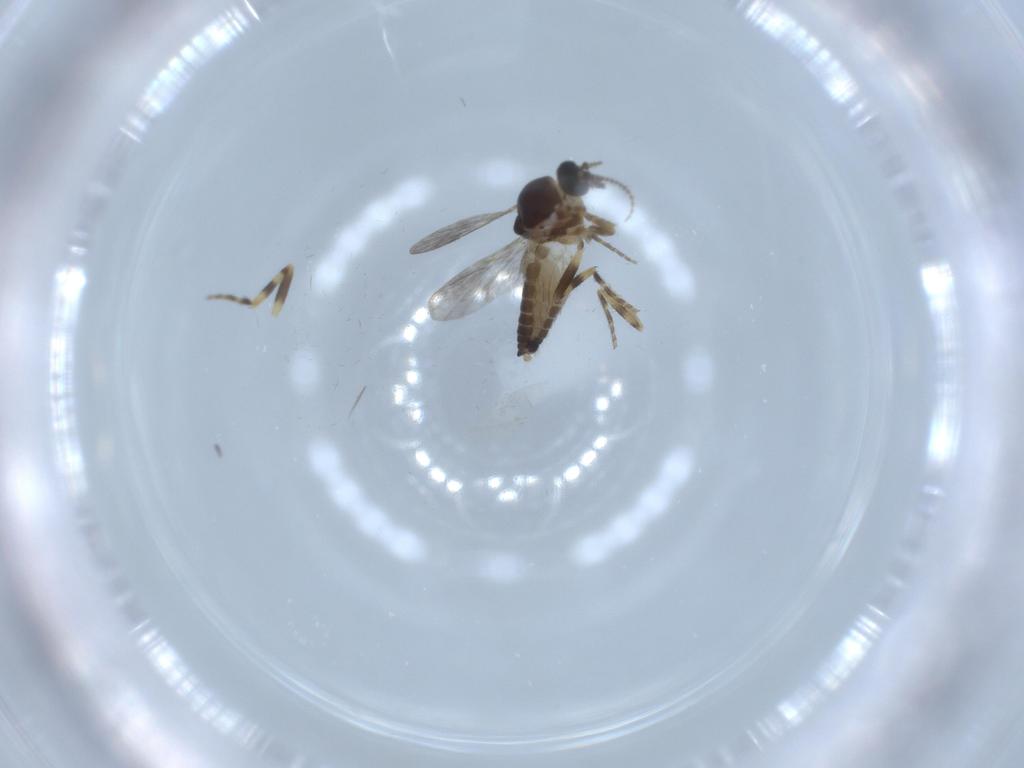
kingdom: Animalia
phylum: Arthropoda
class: Insecta
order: Diptera
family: Ceratopogonidae
